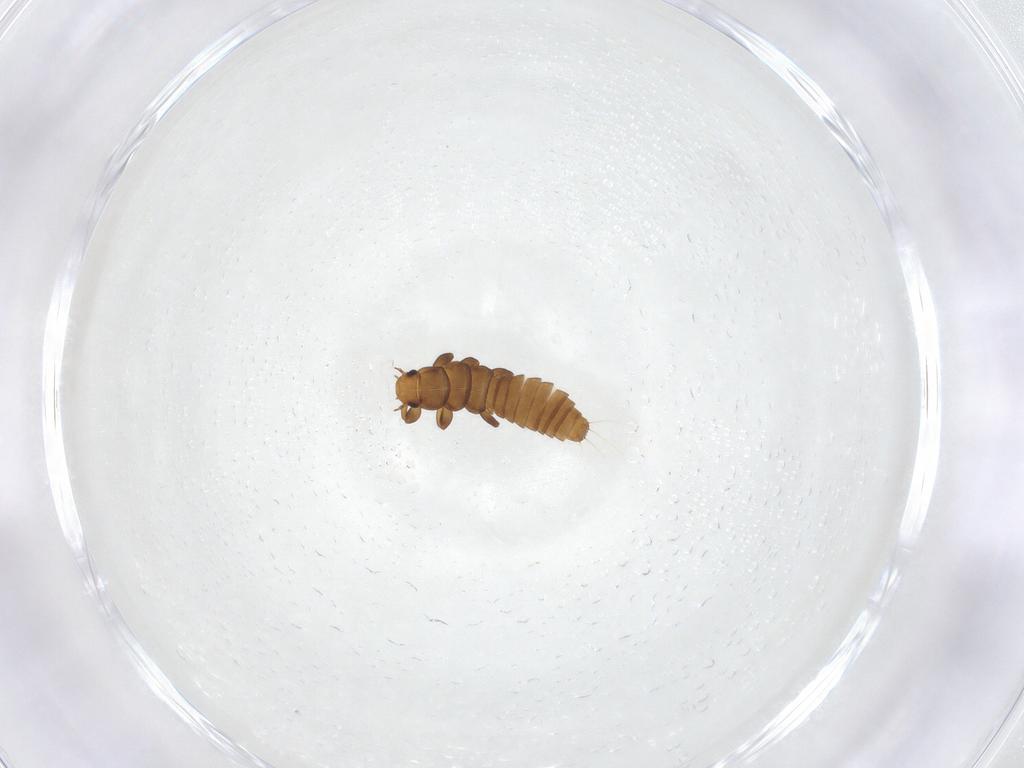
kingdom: Animalia
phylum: Arthropoda
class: Insecta
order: Coleoptera
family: Meloidae
